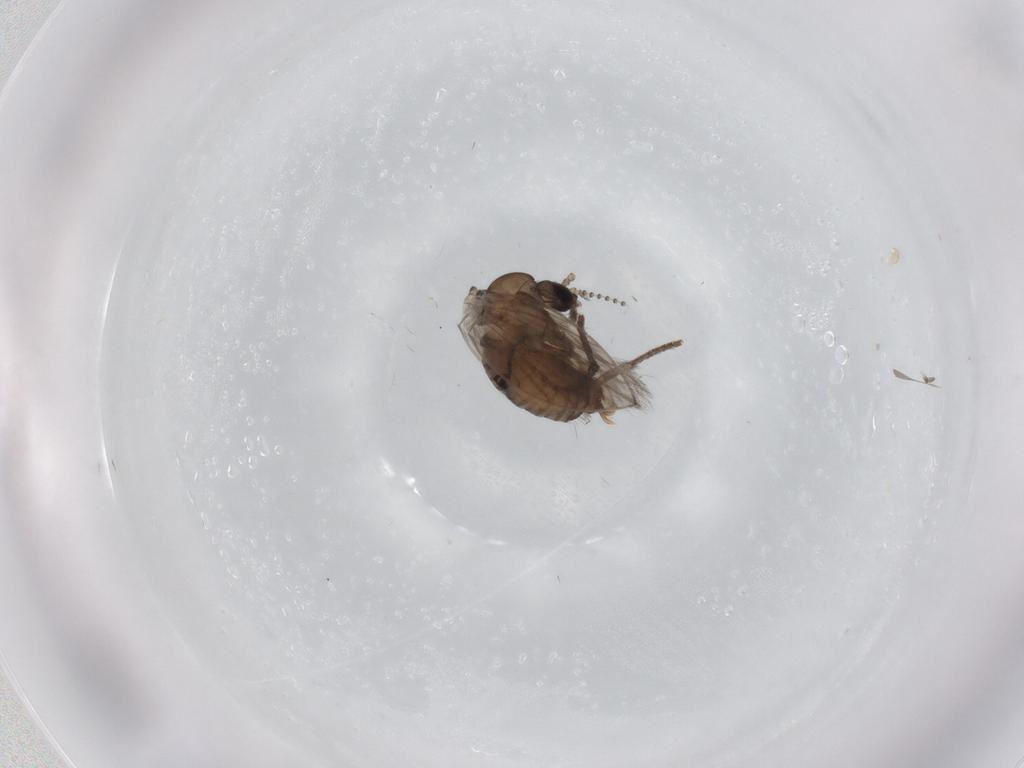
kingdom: Animalia
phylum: Arthropoda
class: Insecta
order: Diptera
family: Psychodidae
